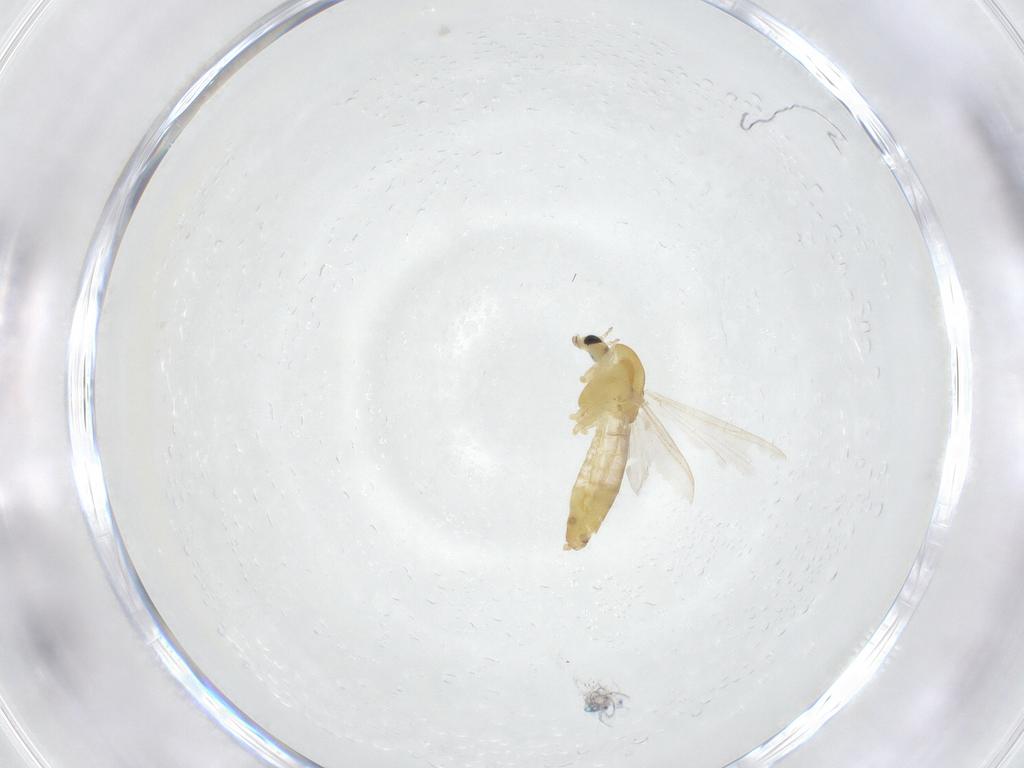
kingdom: Animalia
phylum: Arthropoda
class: Insecta
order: Diptera
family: Chironomidae
